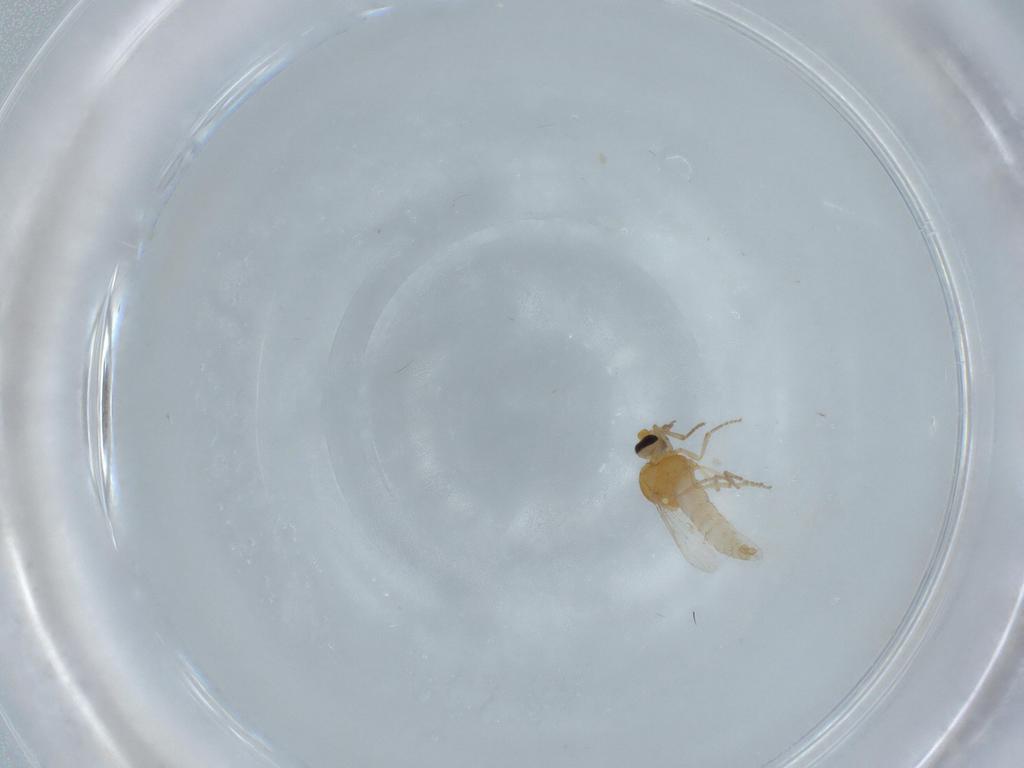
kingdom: Animalia
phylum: Arthropoda
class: Insecta
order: Diptera
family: Ceratopogonidae
